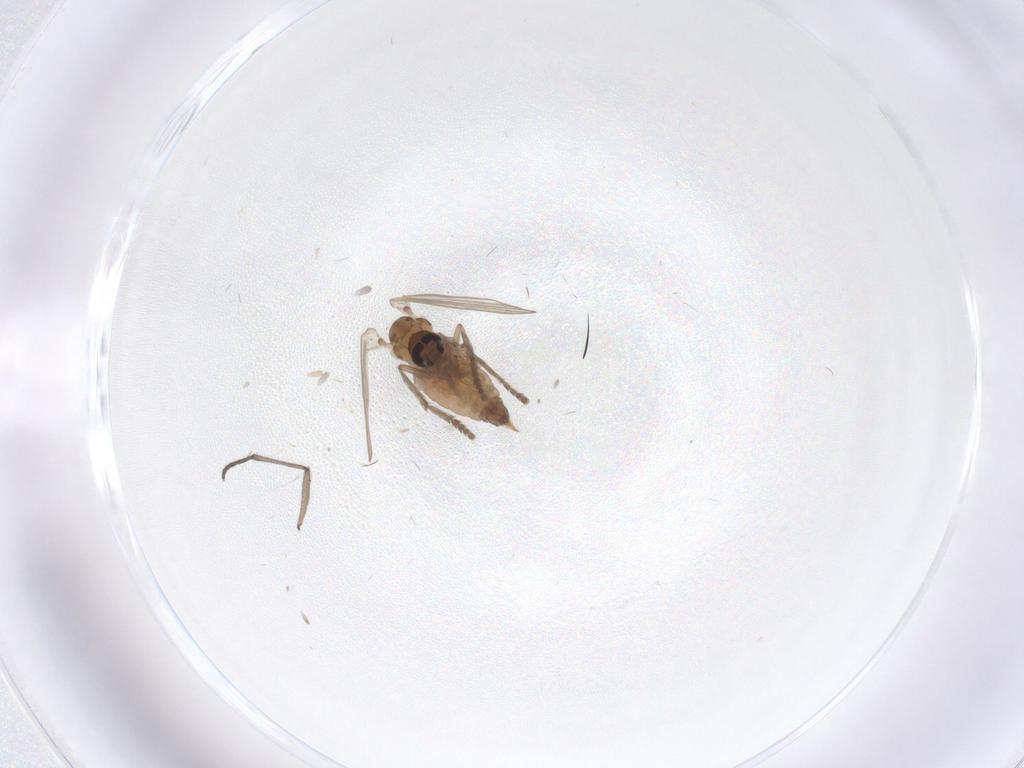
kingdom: Animalia
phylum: Arthropoda
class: Insecta
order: Diptera
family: Psychodidae
